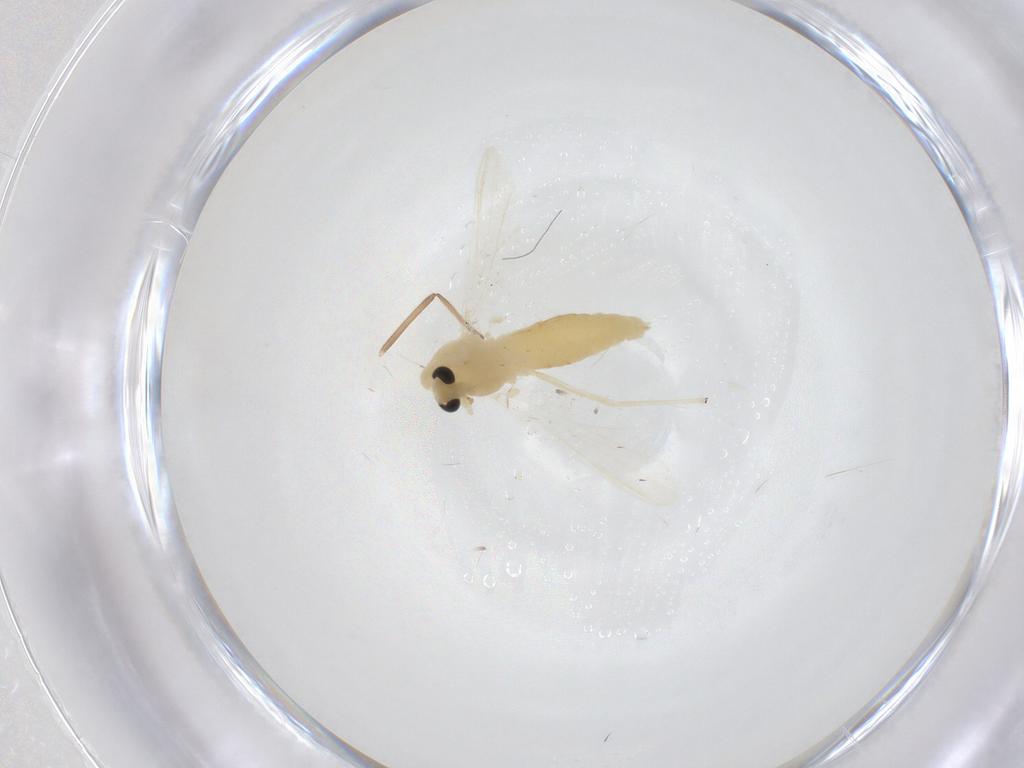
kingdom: Animalia
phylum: Arthropoda
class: Insecta
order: Diptera
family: Chironomidae
